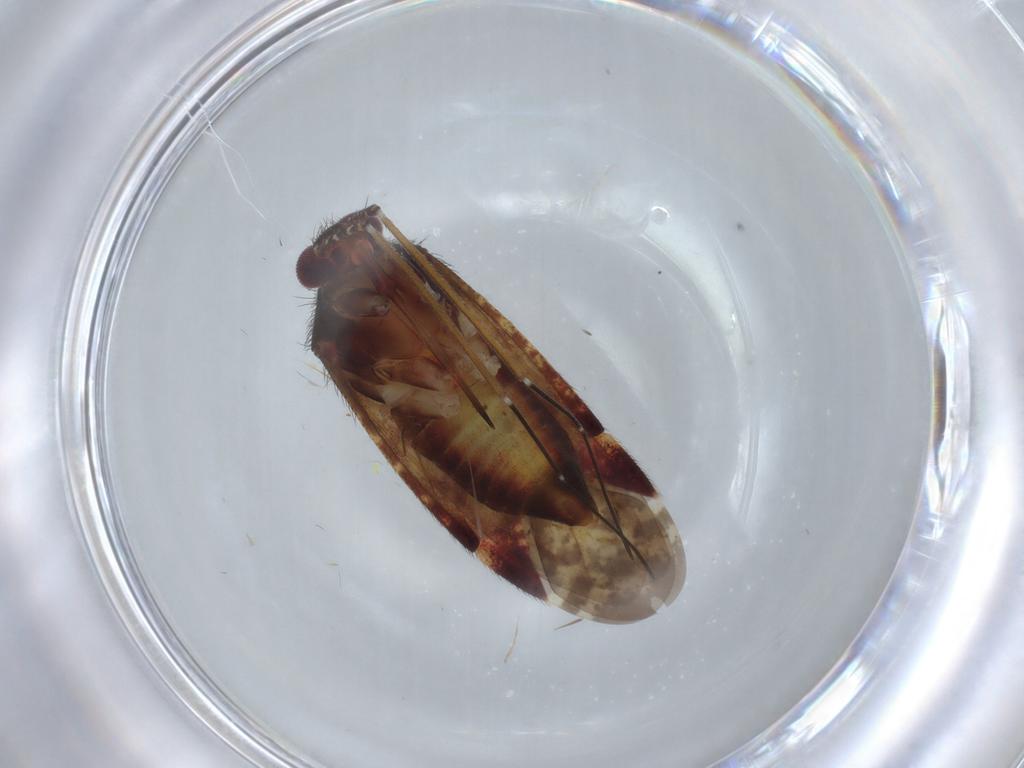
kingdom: Animalia
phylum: Arthropoda
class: Insecta
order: Hemiptera
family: Miridae
